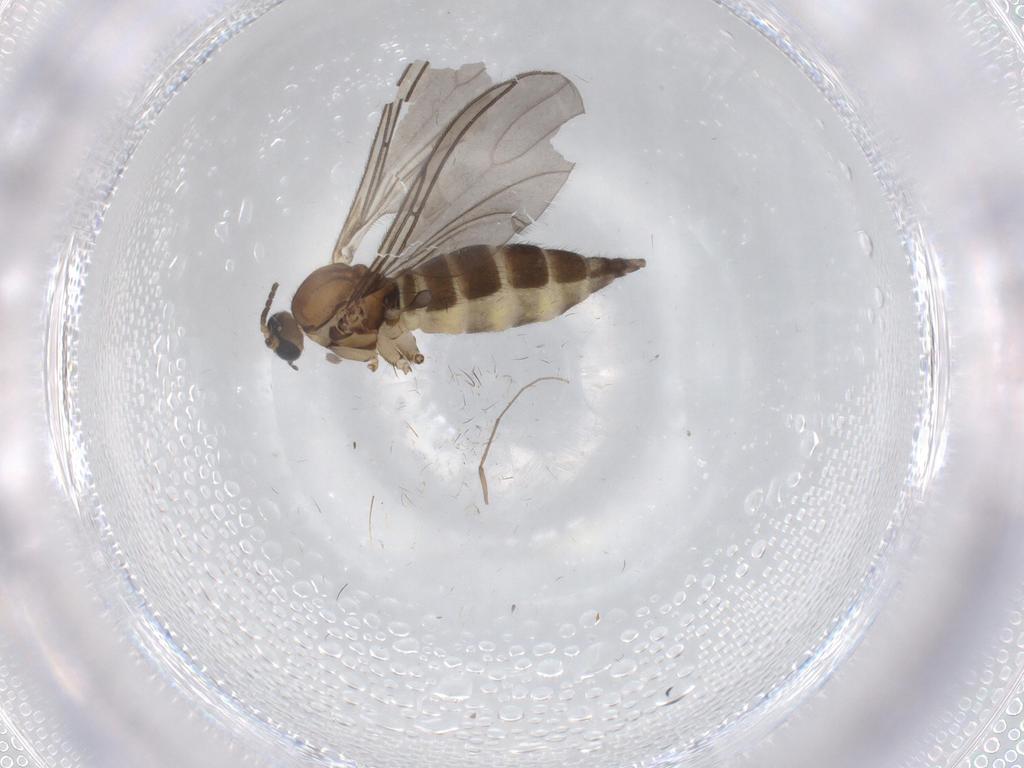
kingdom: Animalia
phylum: Arthropoda
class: Insecta
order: Diptera
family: Sciaridae
